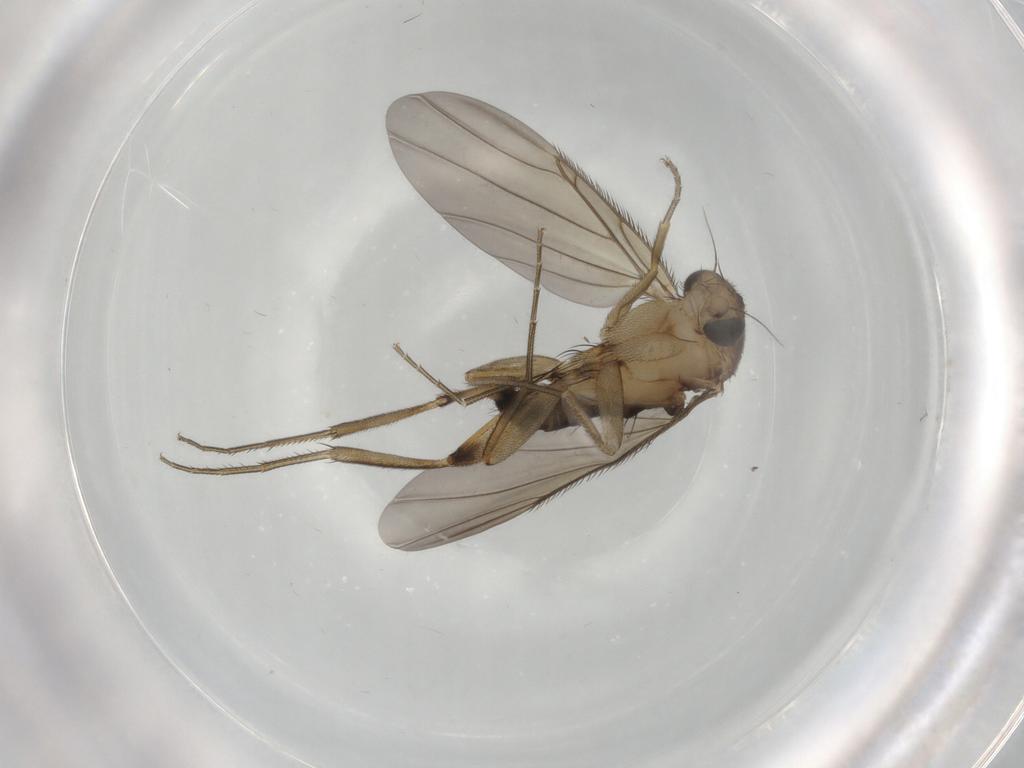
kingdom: Animalia
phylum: Arthropoda
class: Insecta
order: Diptera
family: Phoridae
